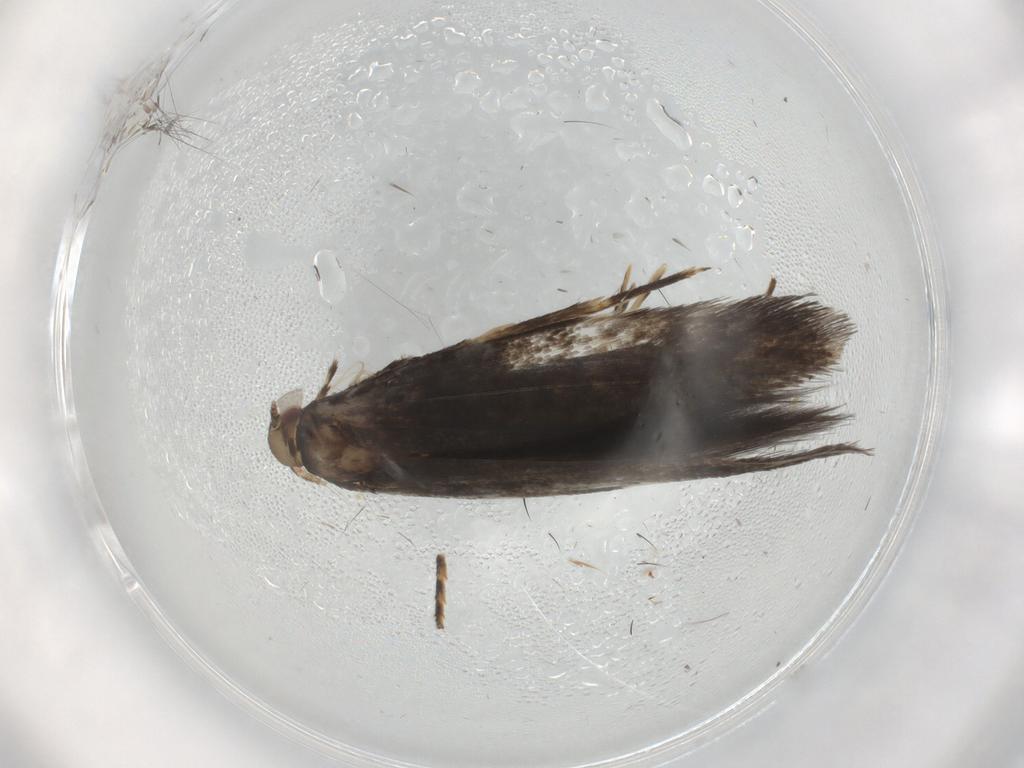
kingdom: Animalia
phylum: Arthropoda
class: Insecta
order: Lepidoptera
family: Gracillariidae
